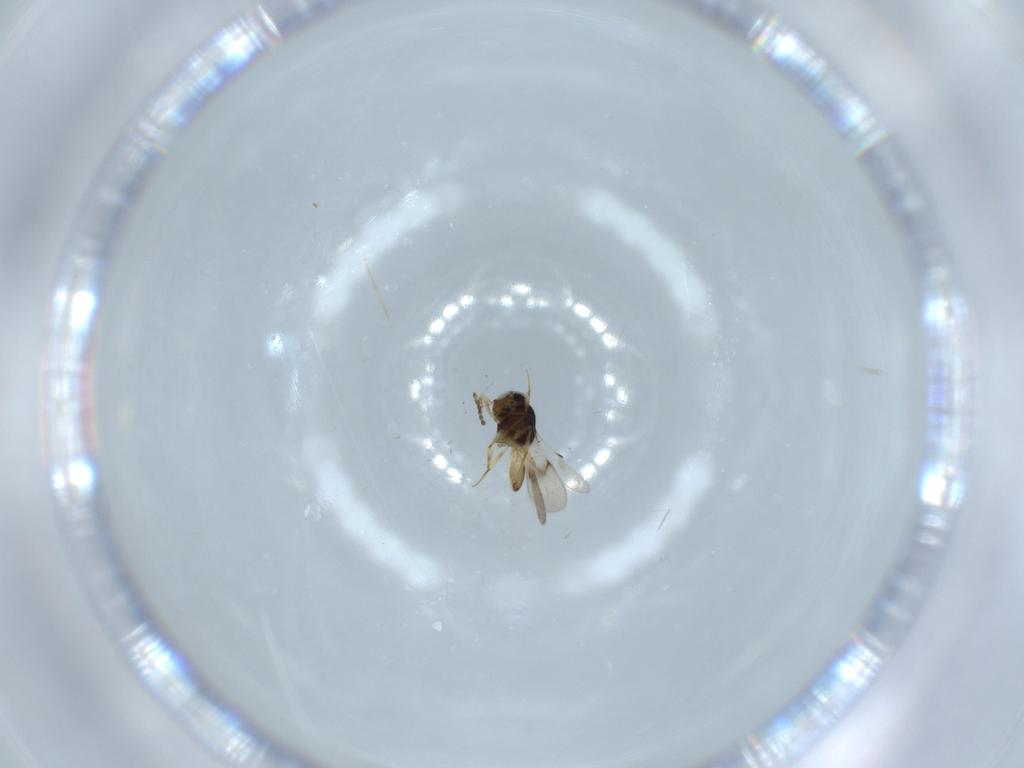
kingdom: Animalia
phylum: Arthropoda
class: Insecta
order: Hymenoptera
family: Scelionidae
